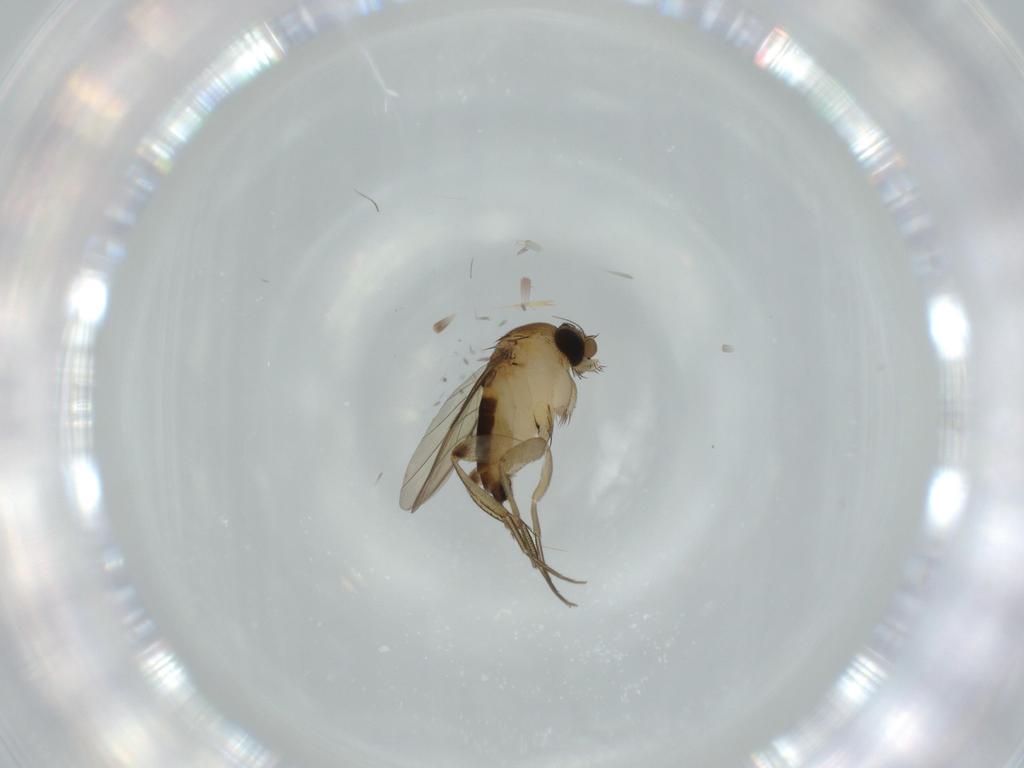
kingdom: Animalia
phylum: Arthropoda
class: Insecta
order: Diptera
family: Phoridae
